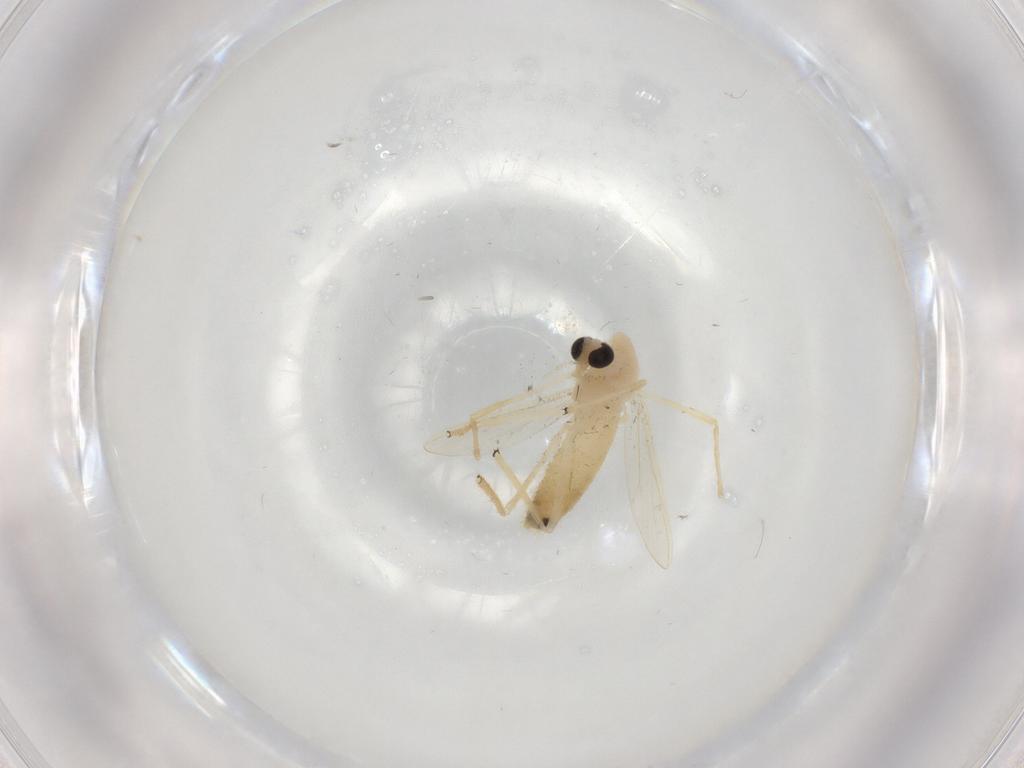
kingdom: Animalia
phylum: Arthropoda
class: Insecta
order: Diptera
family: Chironomidae
